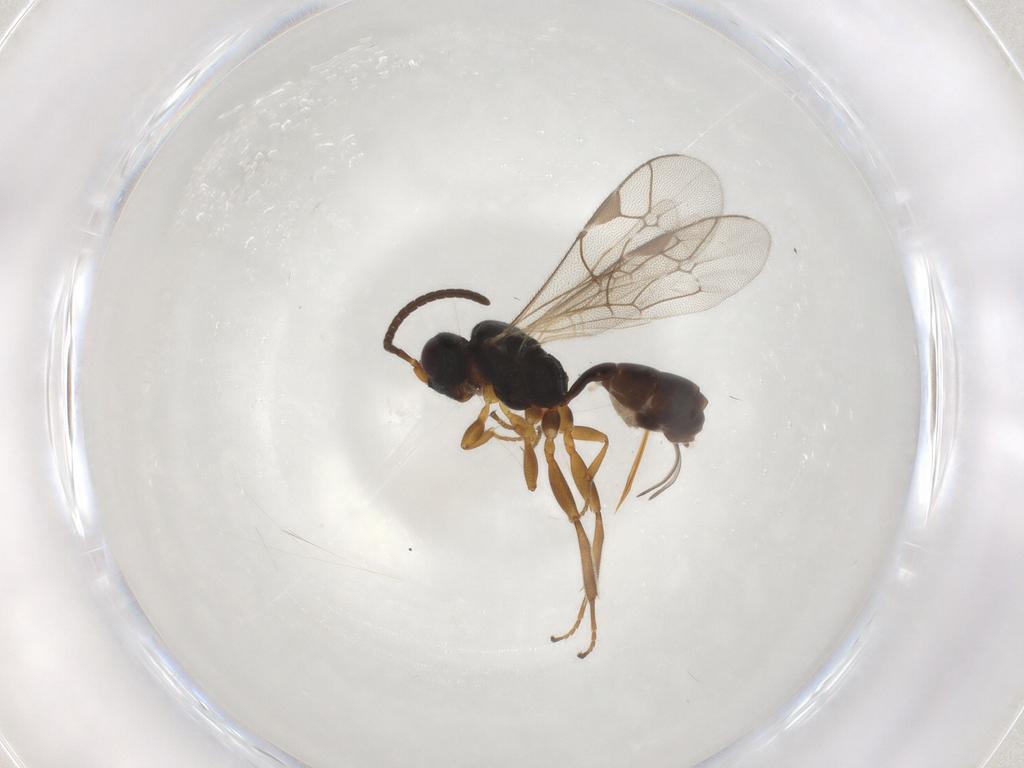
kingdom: Animalia
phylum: Arthropoda
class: Insecta
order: Hymenoptera
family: Ichneumonidae
